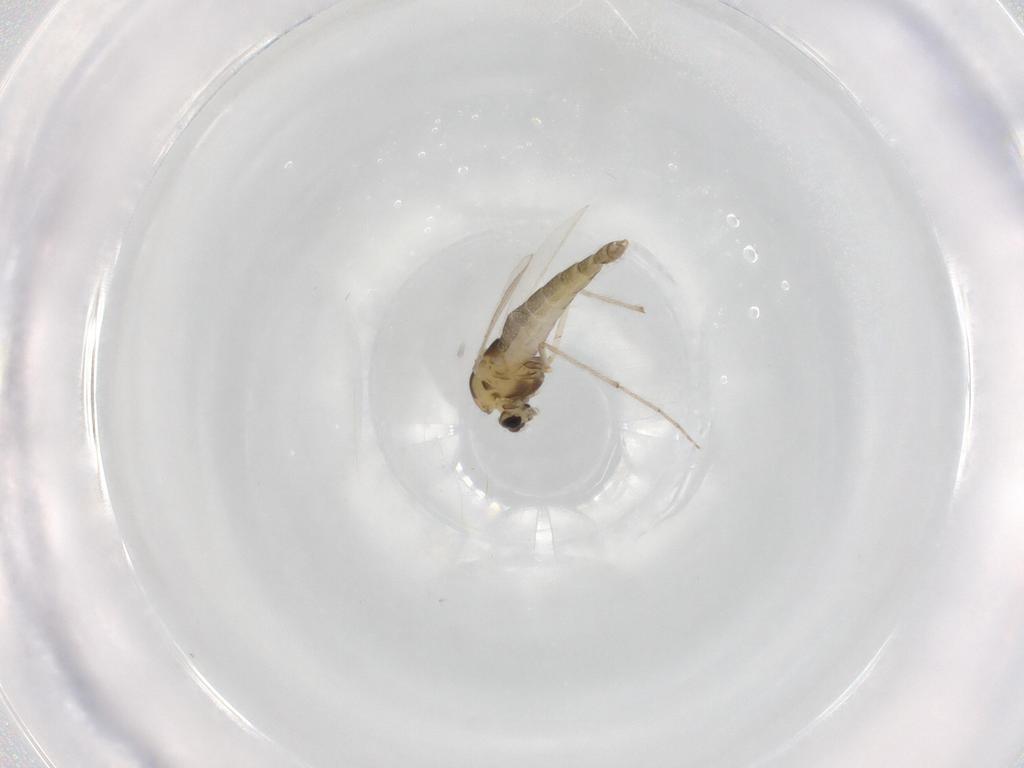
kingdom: Animalia
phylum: Arthropoda
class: Insecta
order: Diptera
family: Chironomidae
